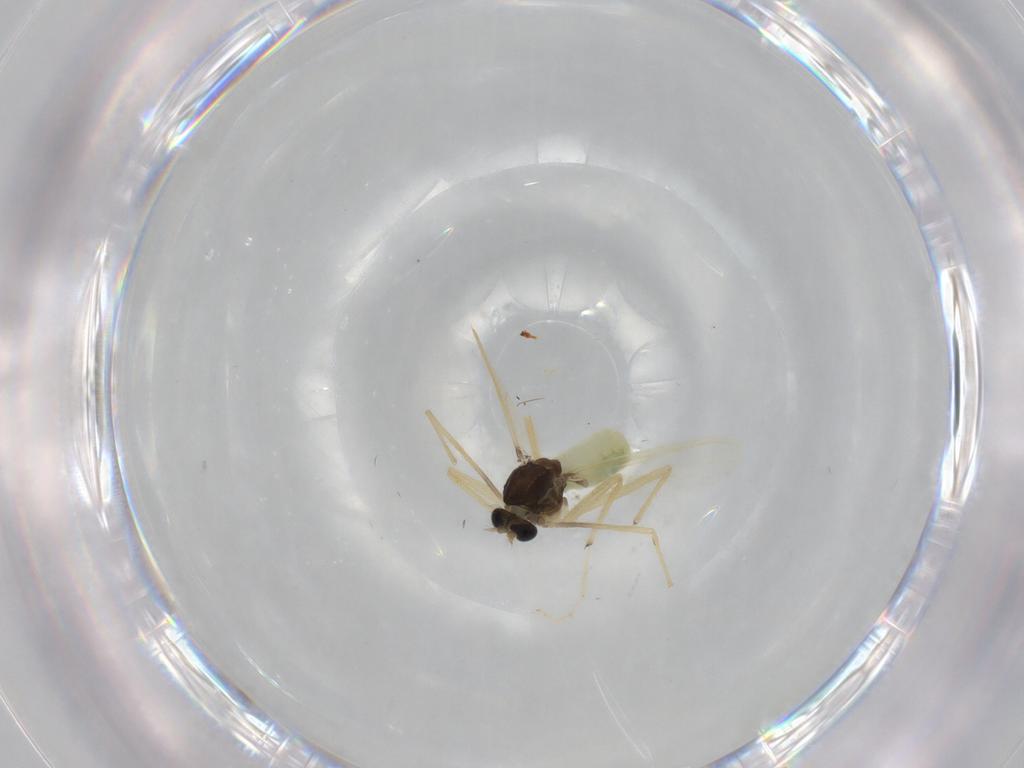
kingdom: Animalia
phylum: Arthropoda
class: Insecta
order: Diptera
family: Chironomidae
